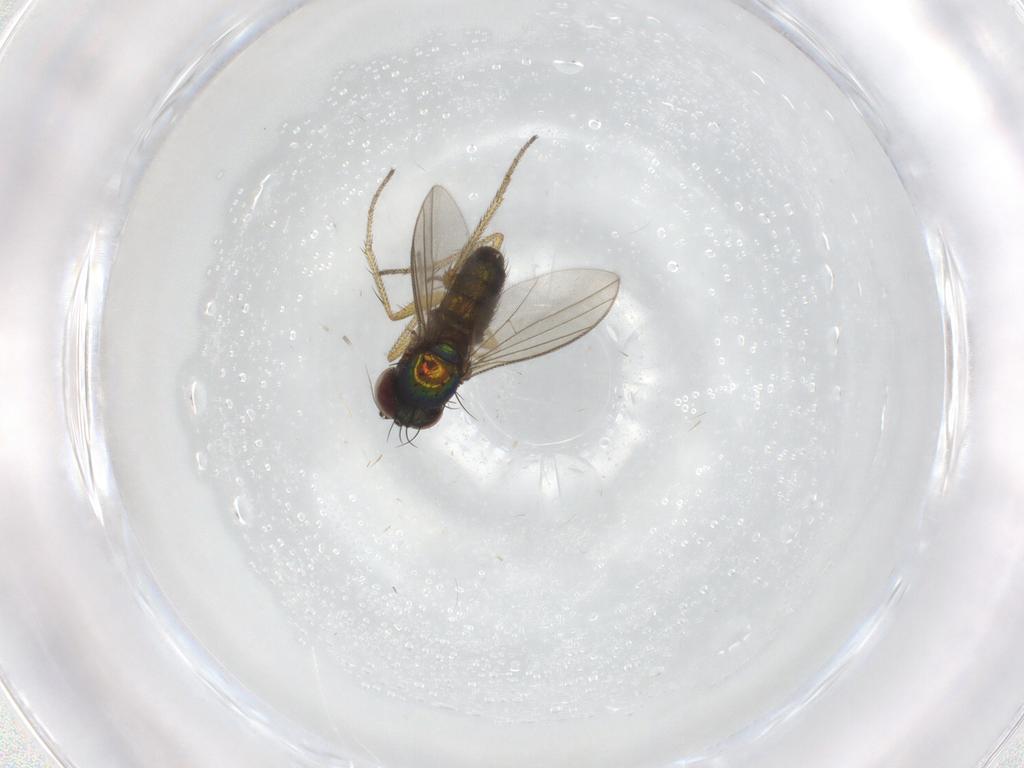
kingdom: Animalia
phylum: Arthropoda
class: Insecta
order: Diptera
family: Dolichopodidae
